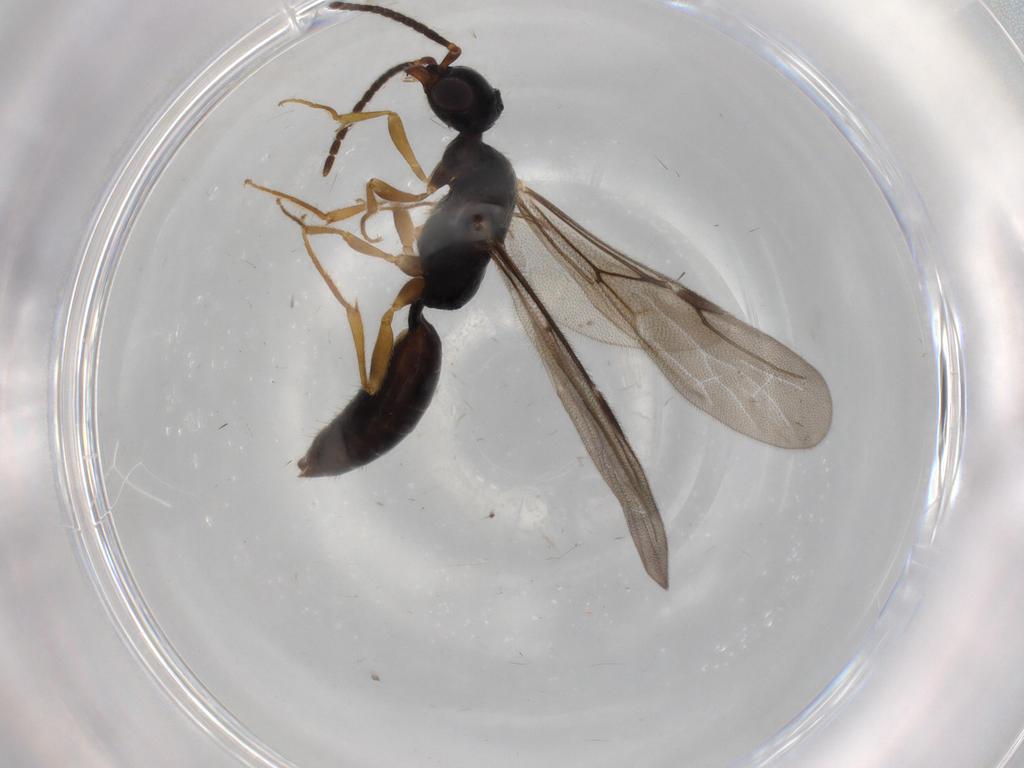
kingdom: Animalia
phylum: Arthropoda
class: Insecta
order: Hymenoptera
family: Bethylidae
